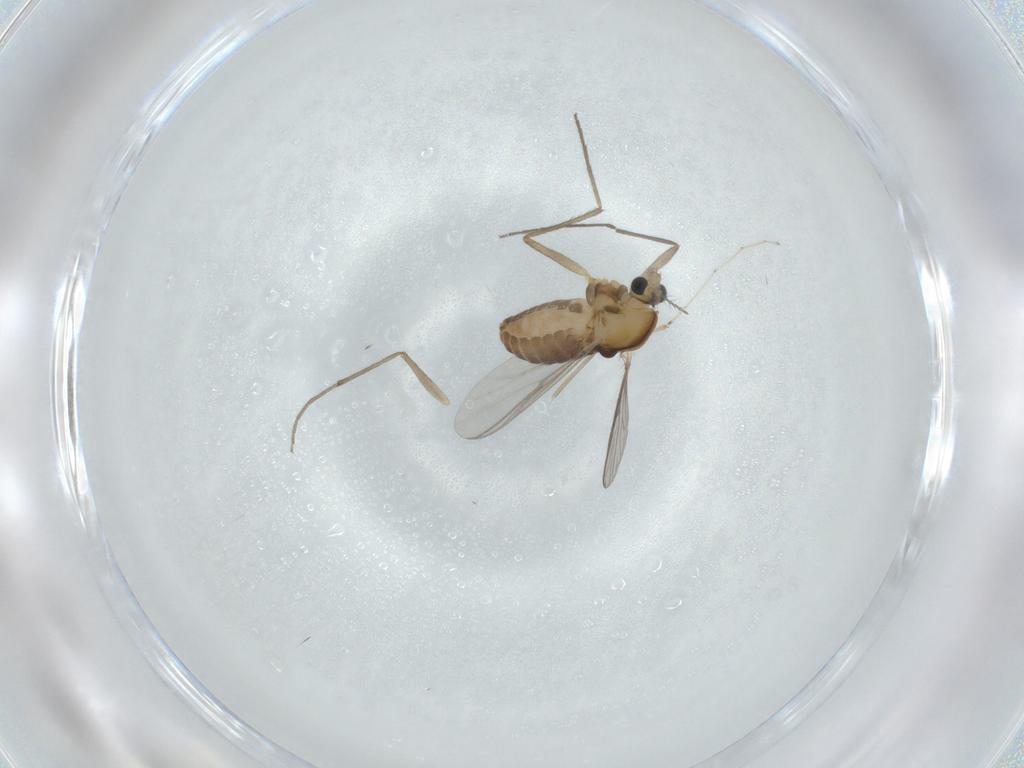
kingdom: Animalia
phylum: Arthropoda
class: Insecta
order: Diptera
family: Chironomidae
